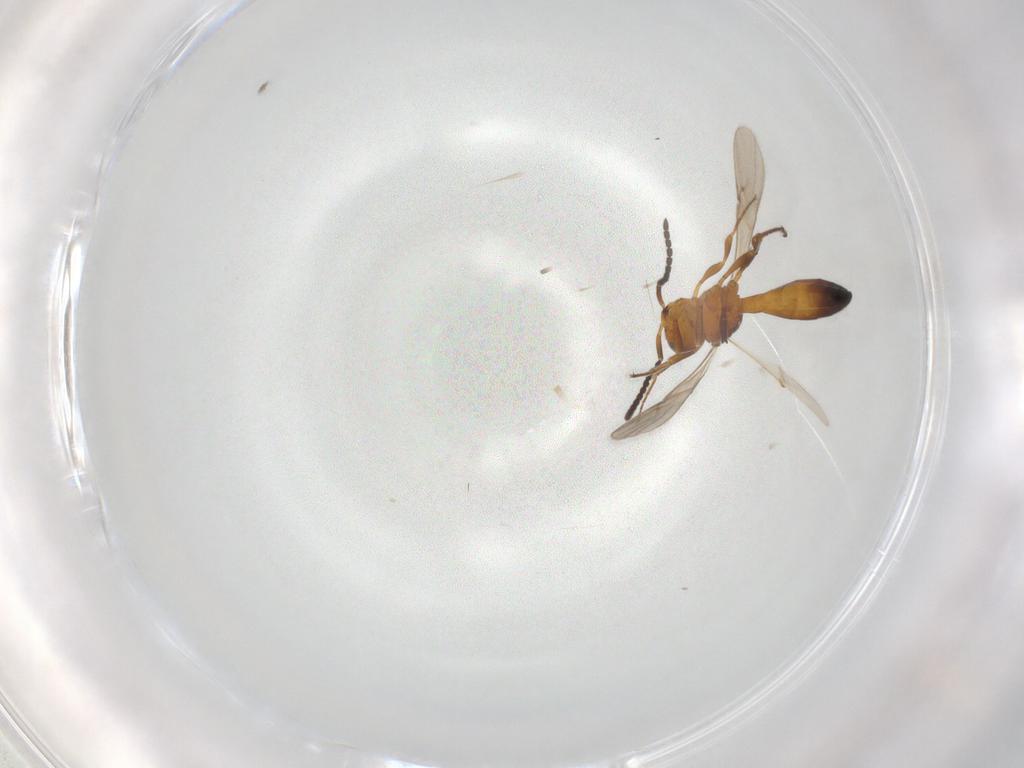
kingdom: Animalia
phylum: Arthropoda
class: Insecta
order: Hymenoptera
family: Scelionidae
